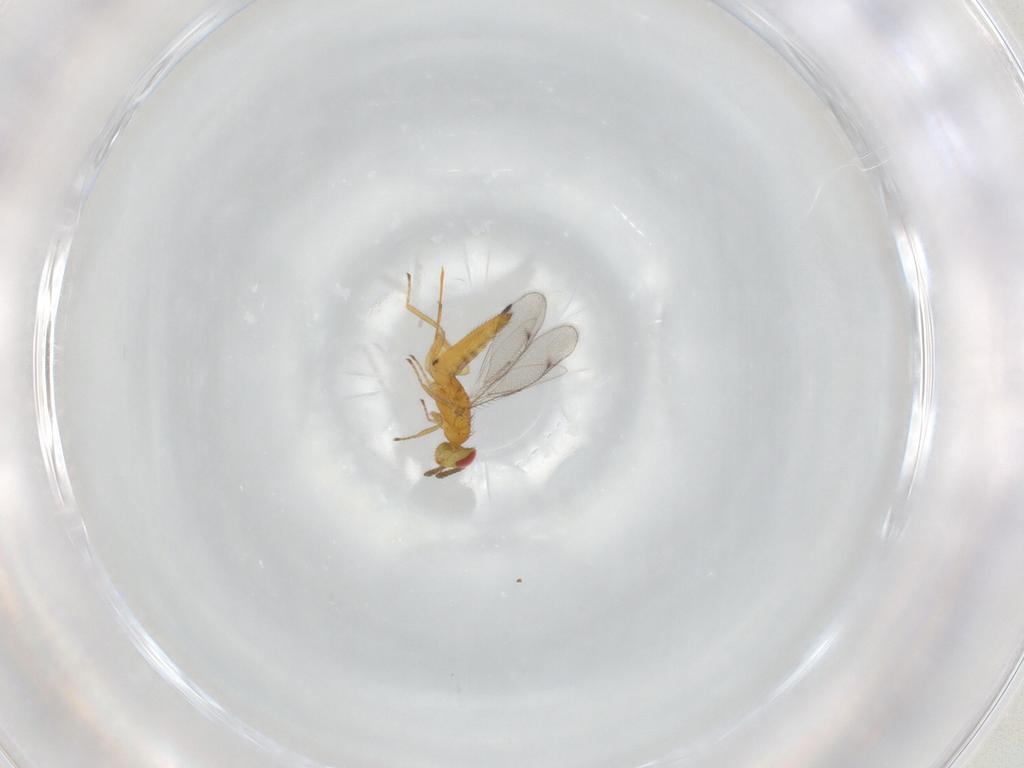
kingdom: Animalia
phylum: Arthropoda
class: Insecta
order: Hymenoptera
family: Eulophidae
